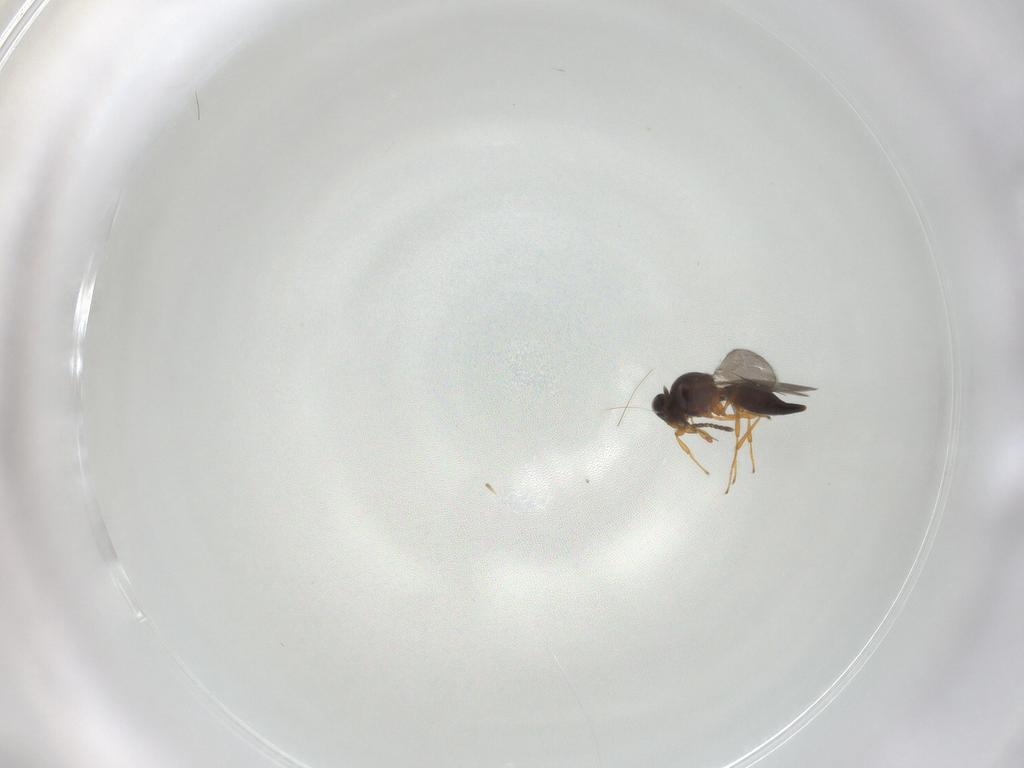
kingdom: Animalia
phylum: Arthropoda
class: Insecta
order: Hymenoptera
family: Platygastridae
